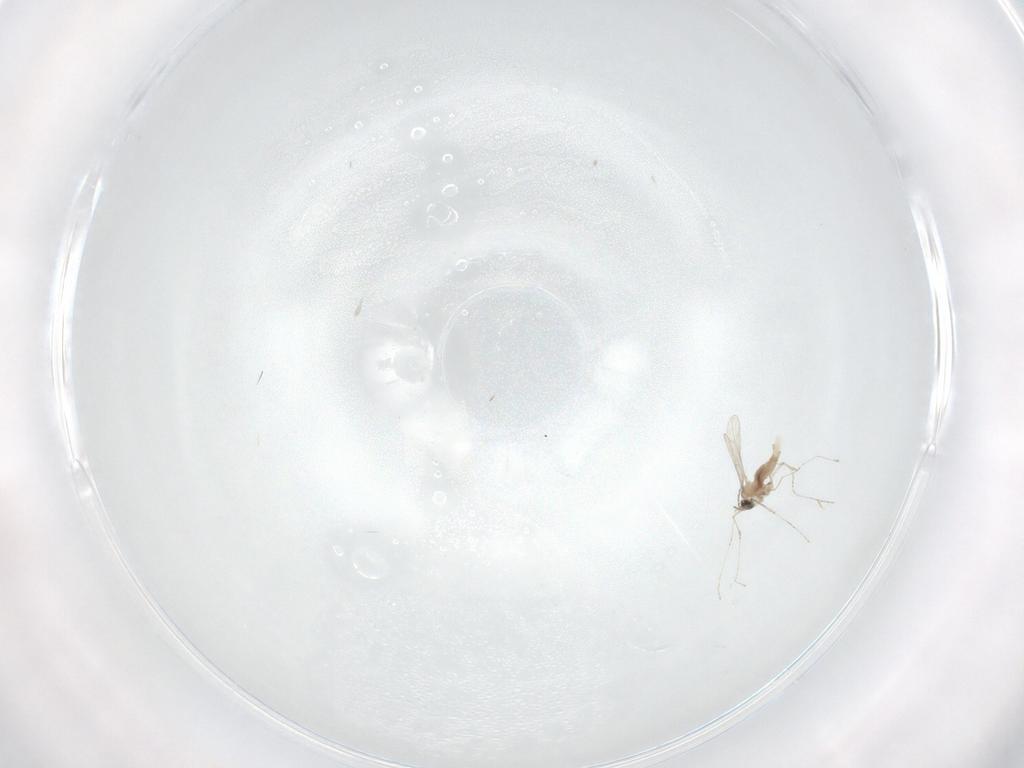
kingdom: Animalia
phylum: Arthropoda
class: Insecta
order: Diptera
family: Cecidomyiidae
